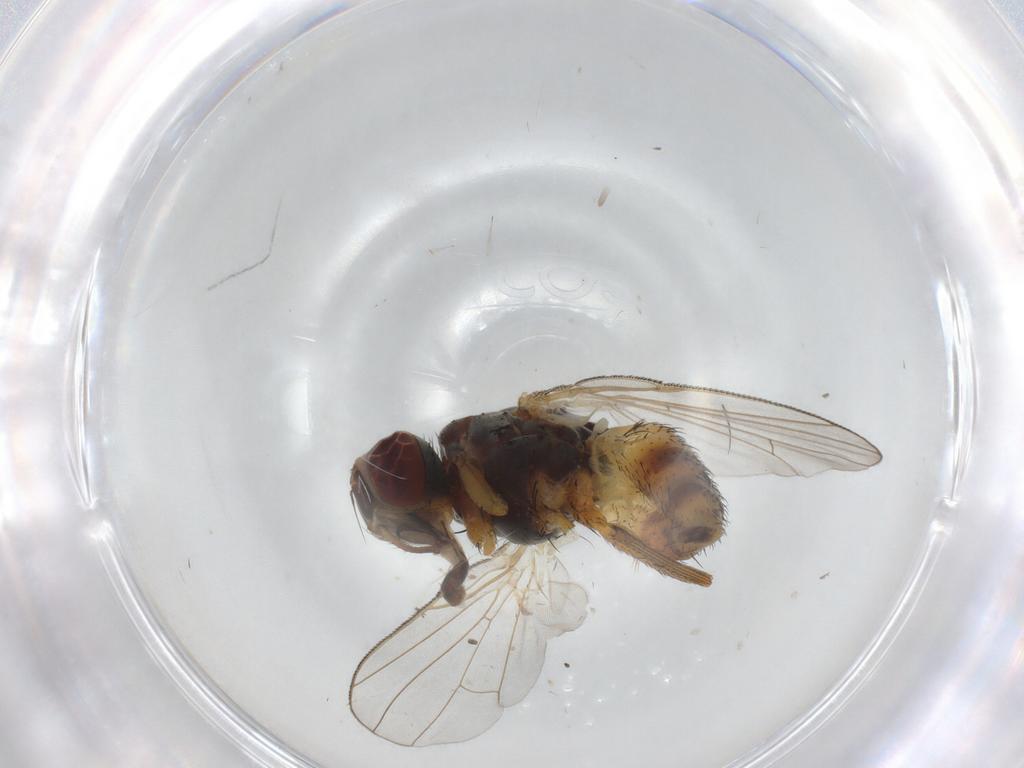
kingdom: Animalia
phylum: Arthropoda
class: Insecta
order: Diptera
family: Muscidae
